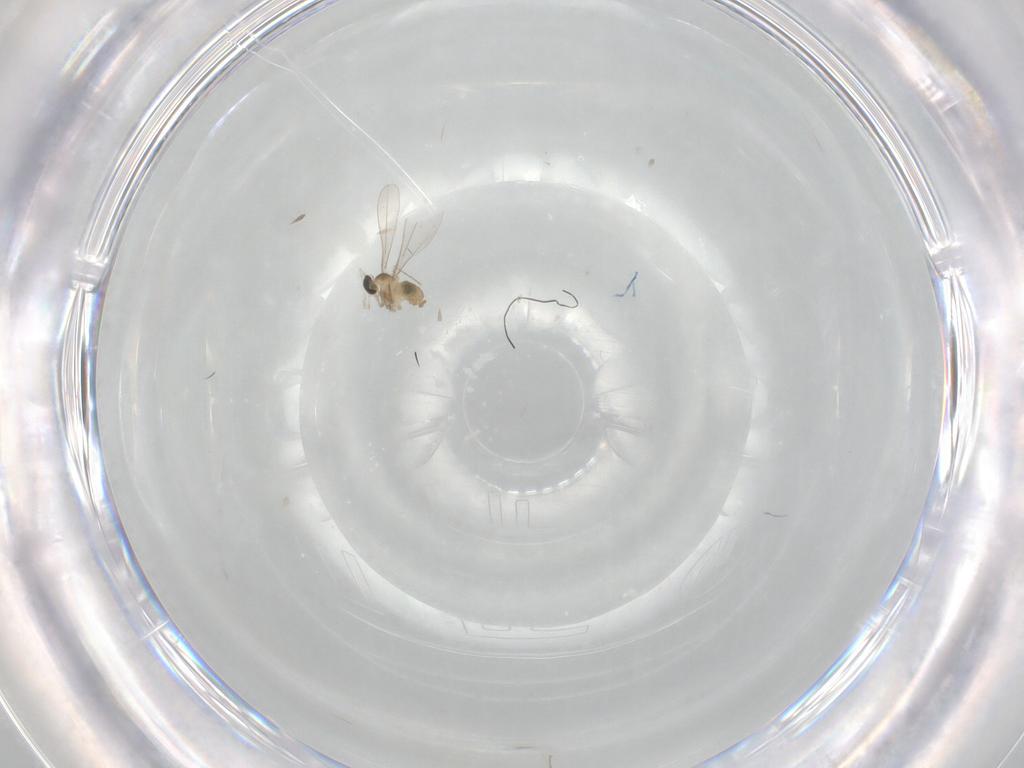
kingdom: Animalia
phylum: Arthropoda
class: Insecta
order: Diptera
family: Cecidomyiidae
